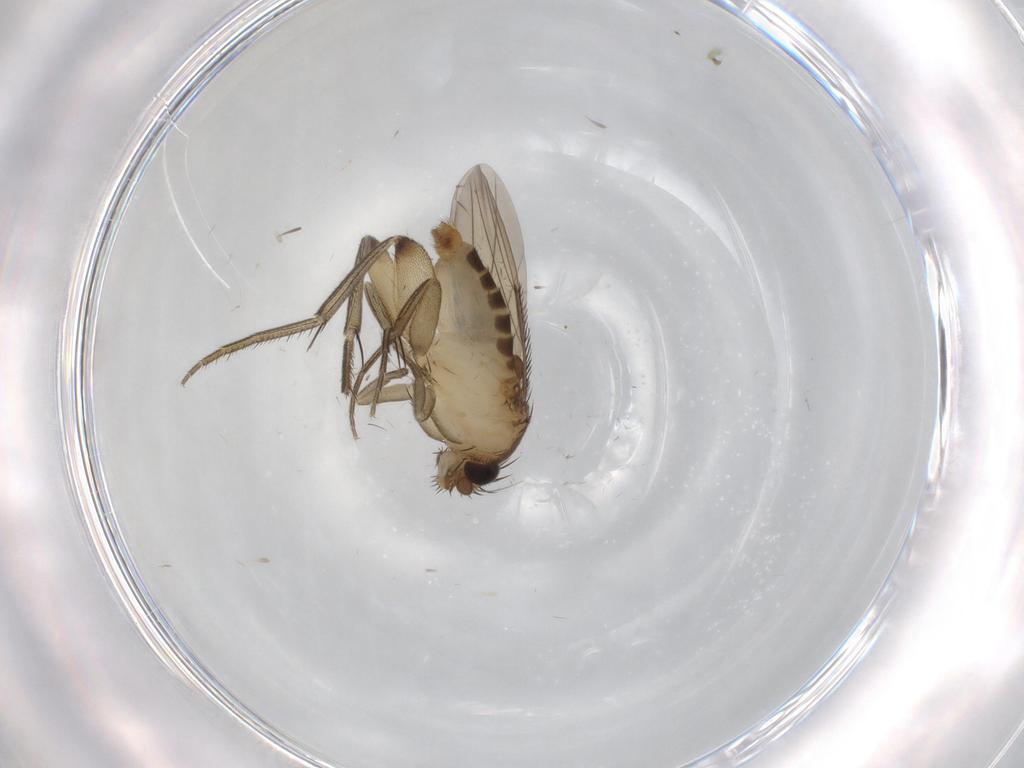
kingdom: Animalia
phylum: Arthropoda
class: Insecta
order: Diptera
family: Phoridae
